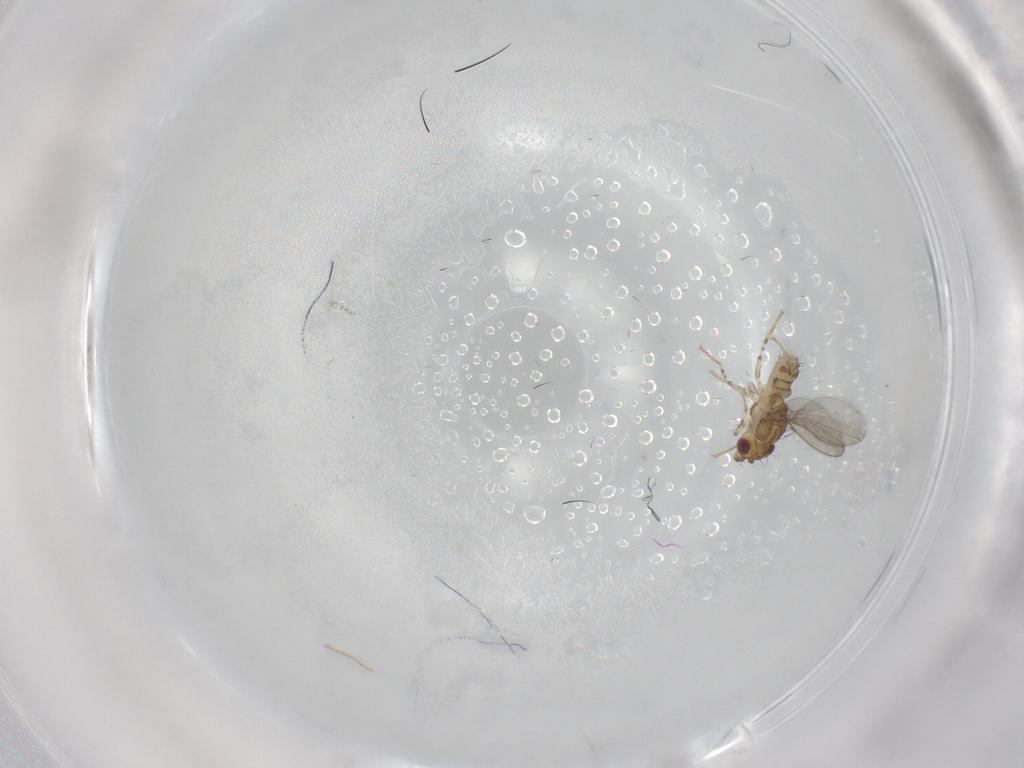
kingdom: Animalia
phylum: Arthropoda
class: Insecta
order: Diptera
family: Asteiidae
